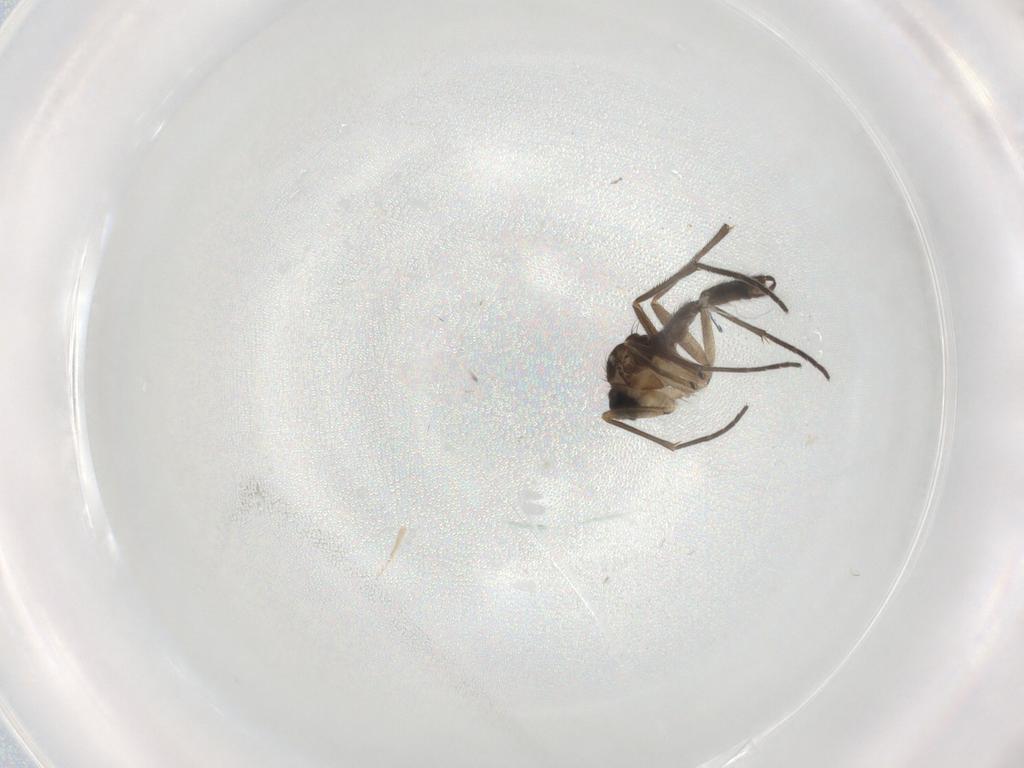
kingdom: Animalia
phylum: Arthropoda
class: Insecta
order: Diptera
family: Sciaridae
